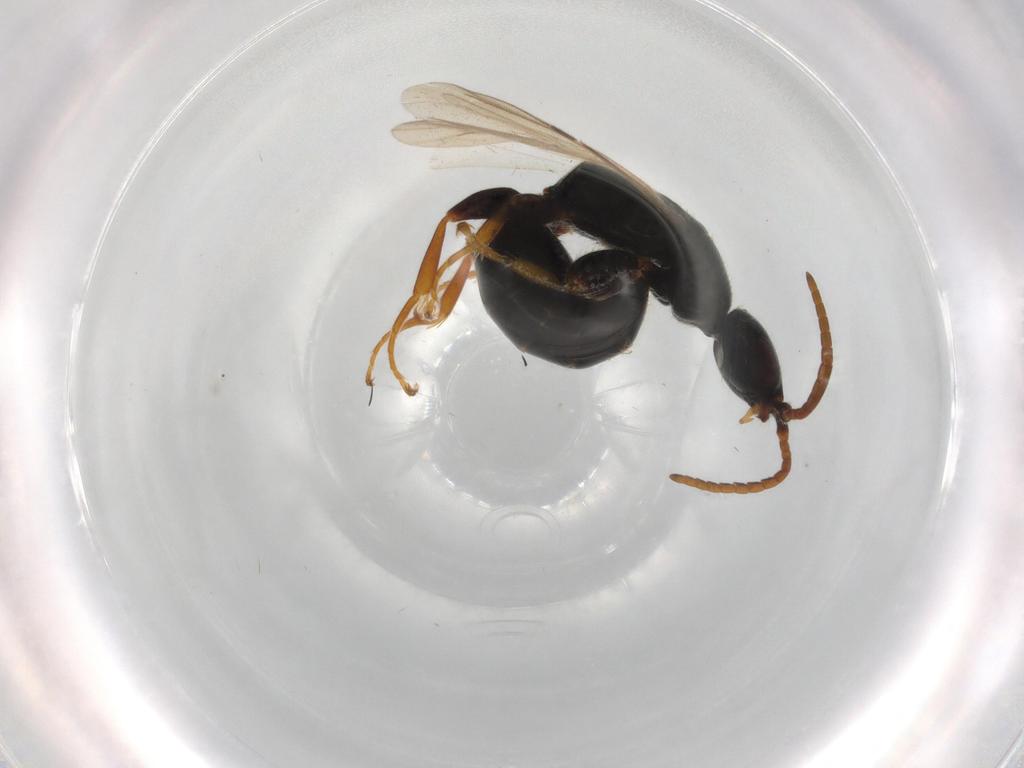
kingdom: Animalia
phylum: Arthropoda
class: Insecta
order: Hymenoptera
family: Bethylidae
